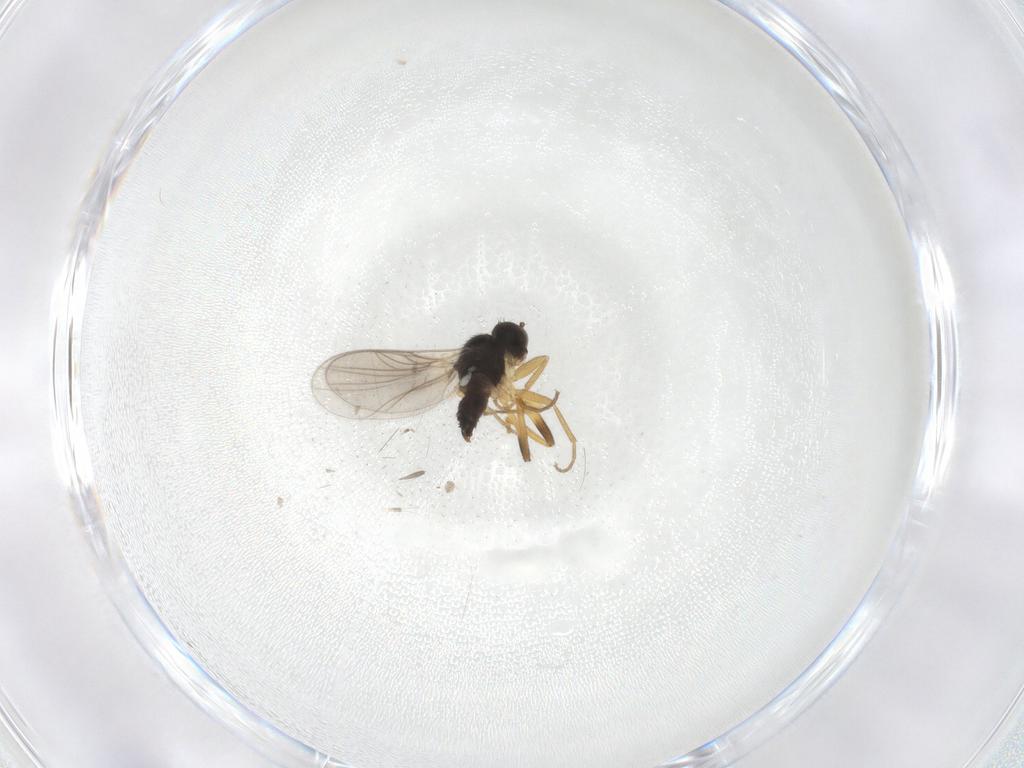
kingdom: Animalia
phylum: Arthropoda
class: Insecta
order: Diptera
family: Hybotidae
